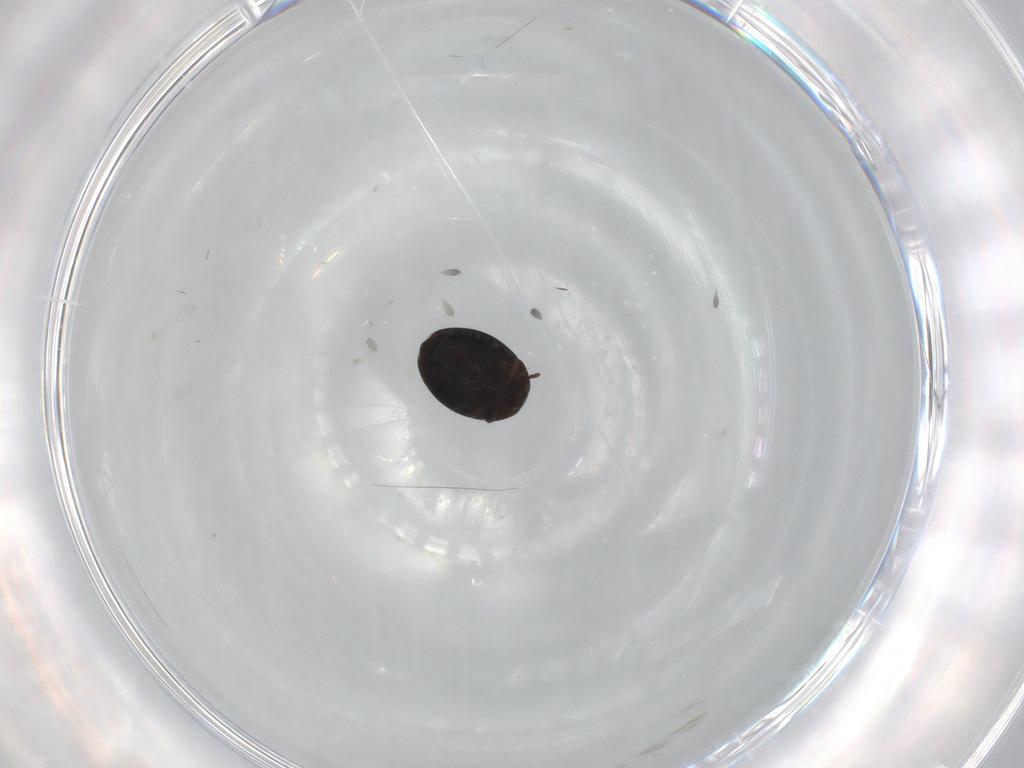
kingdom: Animalia
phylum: Arthropoda
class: Insecta
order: Coleoptera
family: Corylophidae
